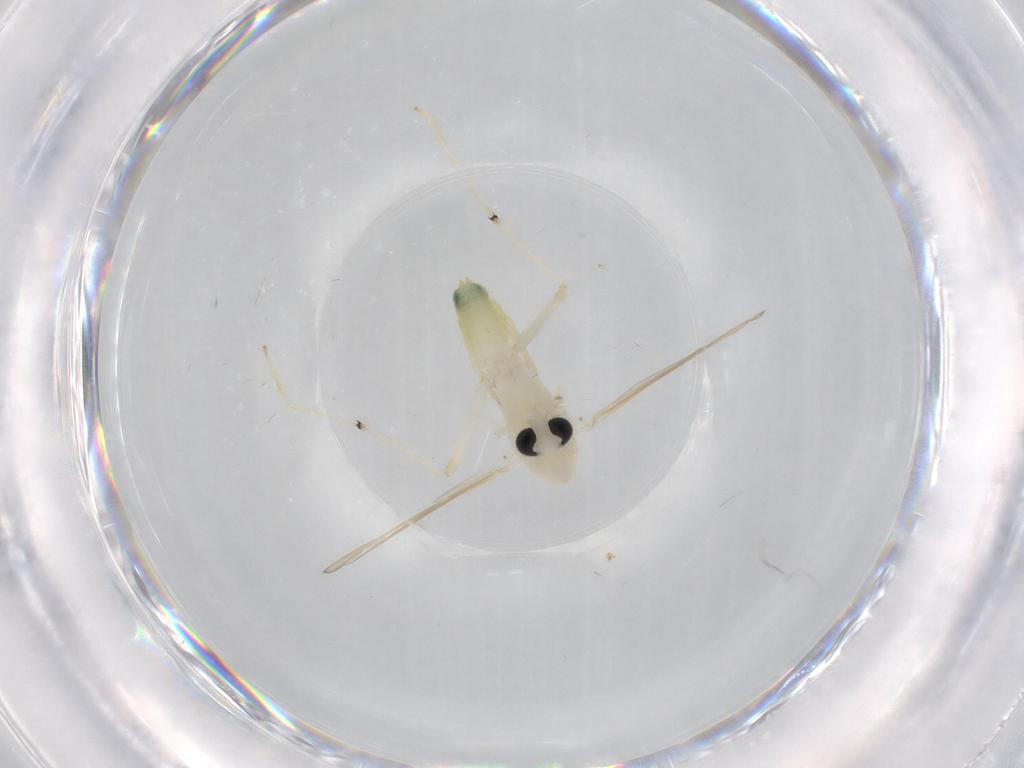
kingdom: Animalia
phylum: Arthropoda
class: Insecta
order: Diptera
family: Chironomidae
